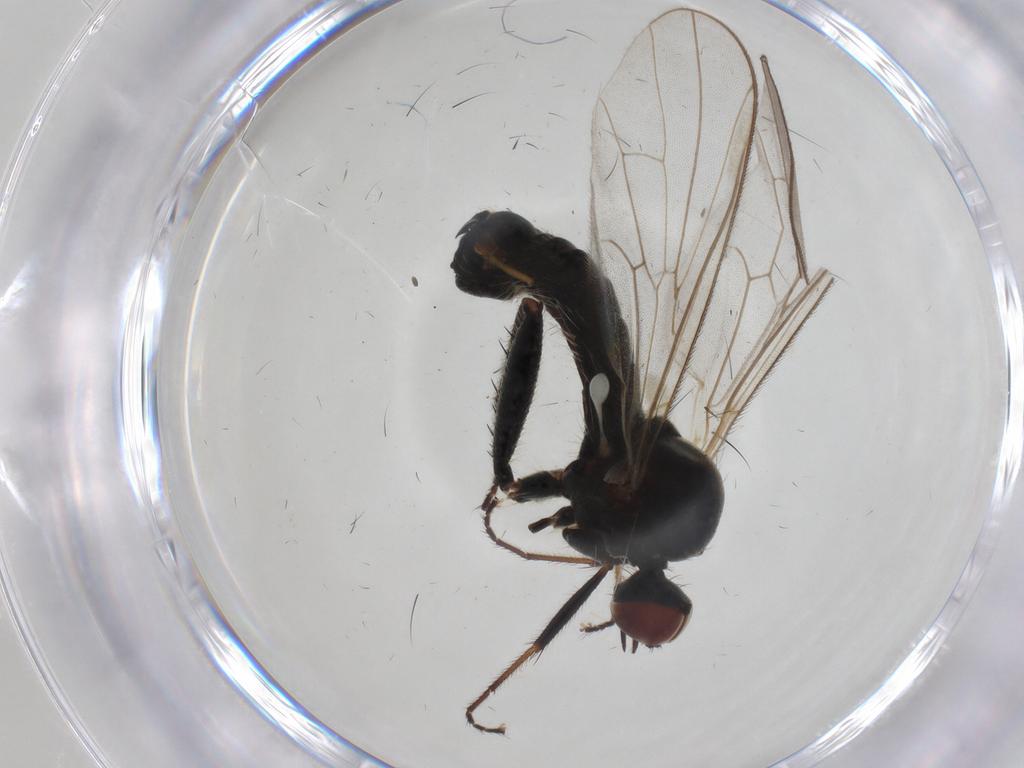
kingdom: Animalia
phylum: Arthropoda
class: Insecta
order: Diptera
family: Hybotidae
